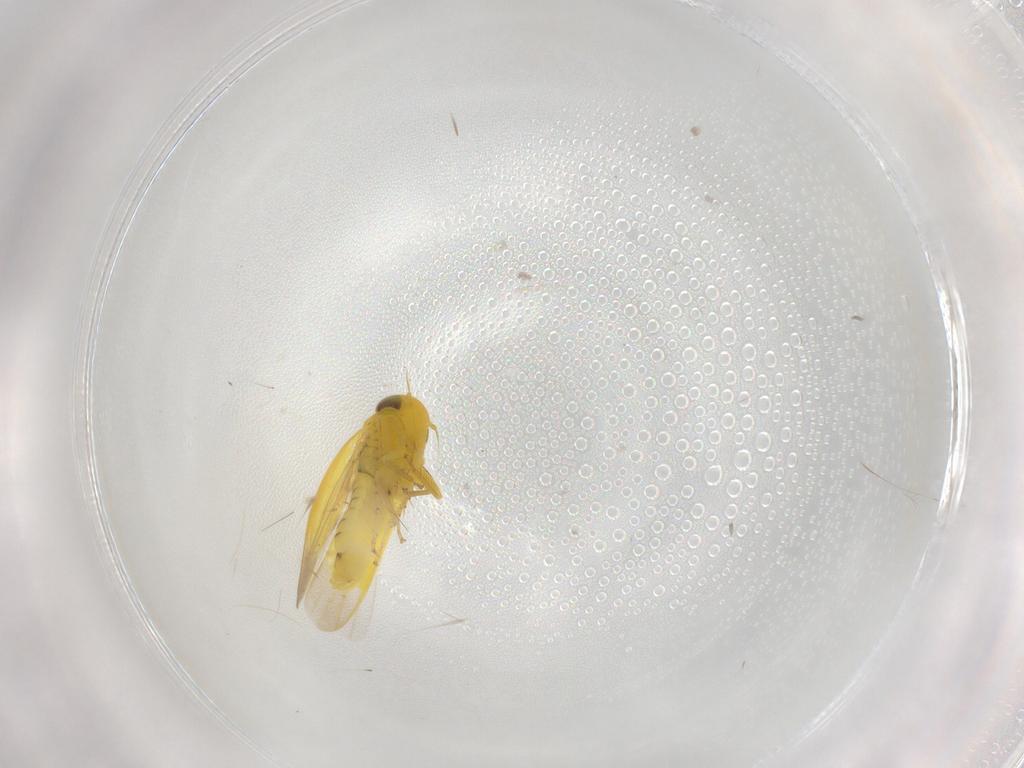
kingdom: Animalia
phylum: Arthropoda
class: Insecta
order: Hemiptera
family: Cicadellidae
